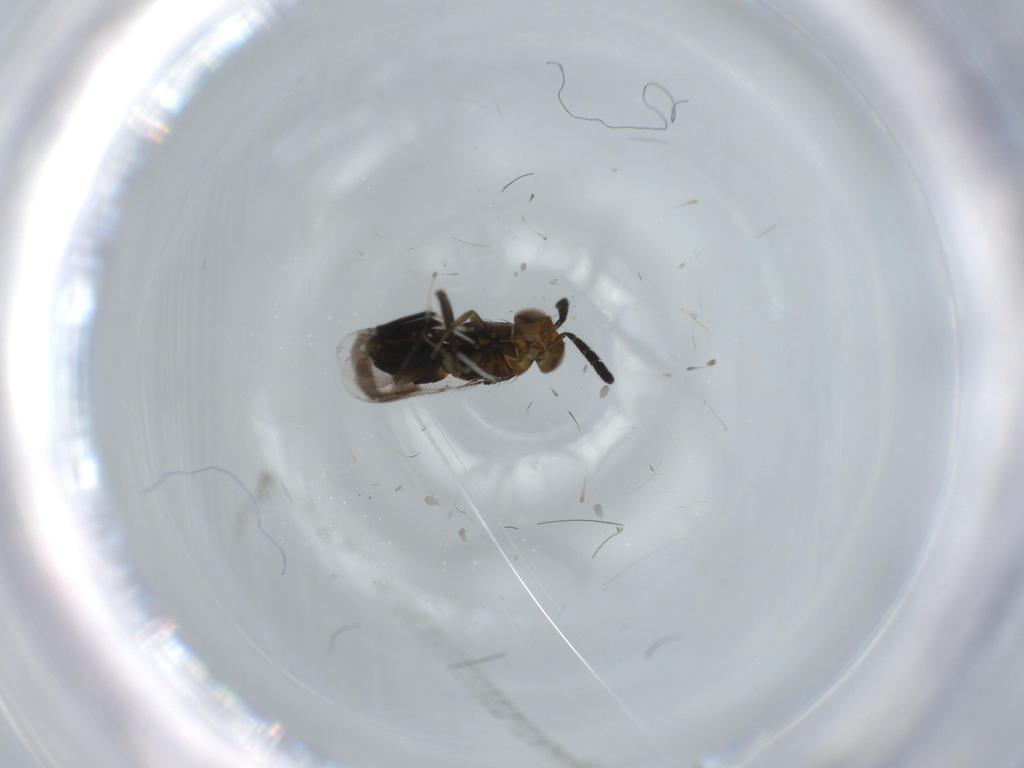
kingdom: Animalia
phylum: Arthropoda
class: Insecta
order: Hymenoptera
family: Aphelinidae
